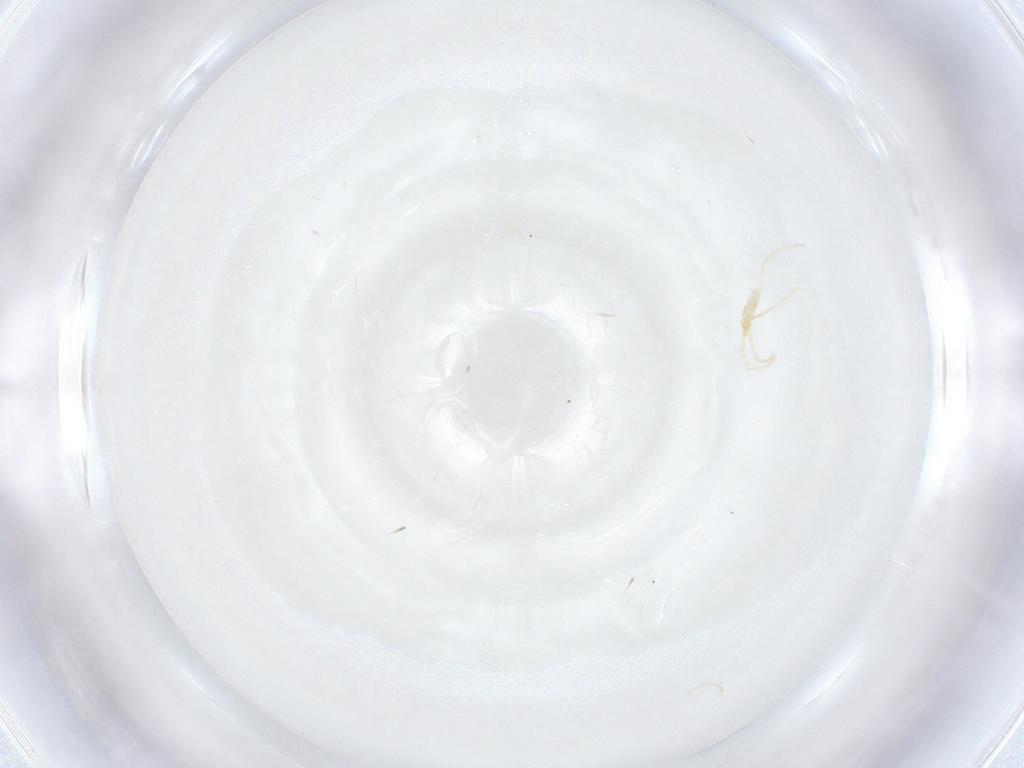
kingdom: Animalia
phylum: Arthropoda
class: Arachnida
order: Trombidiformes
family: Erythraeidae
